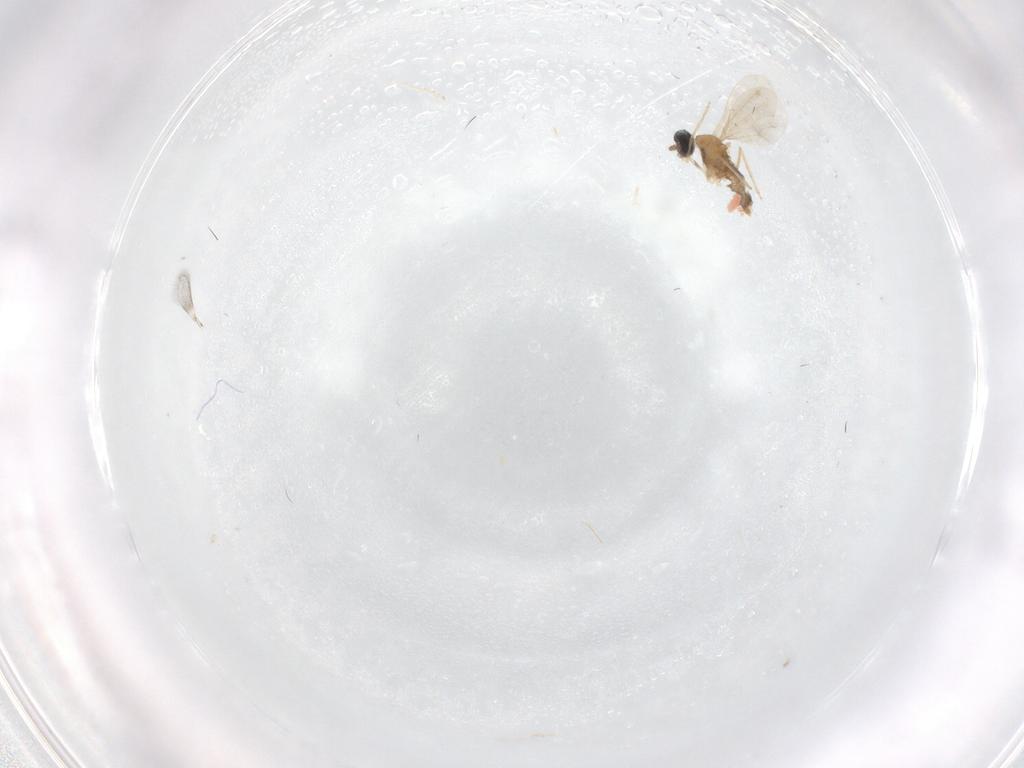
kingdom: Animalia
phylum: Arthropoda
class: Insecta
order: Diptera
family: Cecidomyiidae
